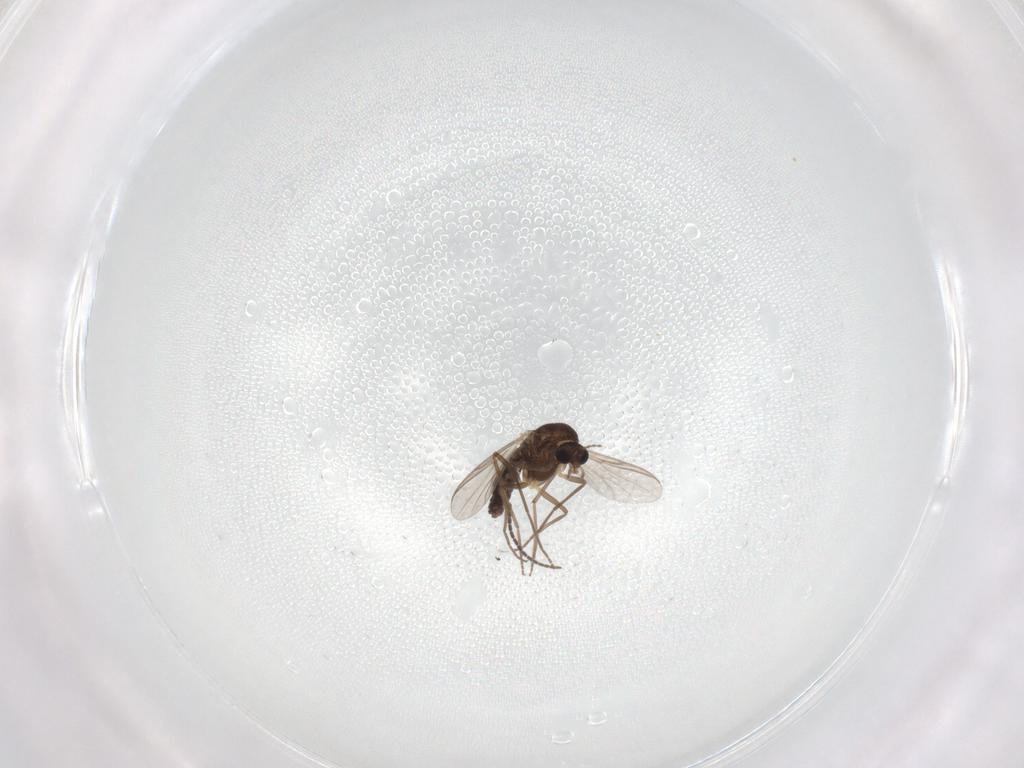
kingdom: Animalia
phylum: Arthropoda
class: Insecta
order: Diptera
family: Chironomidae
